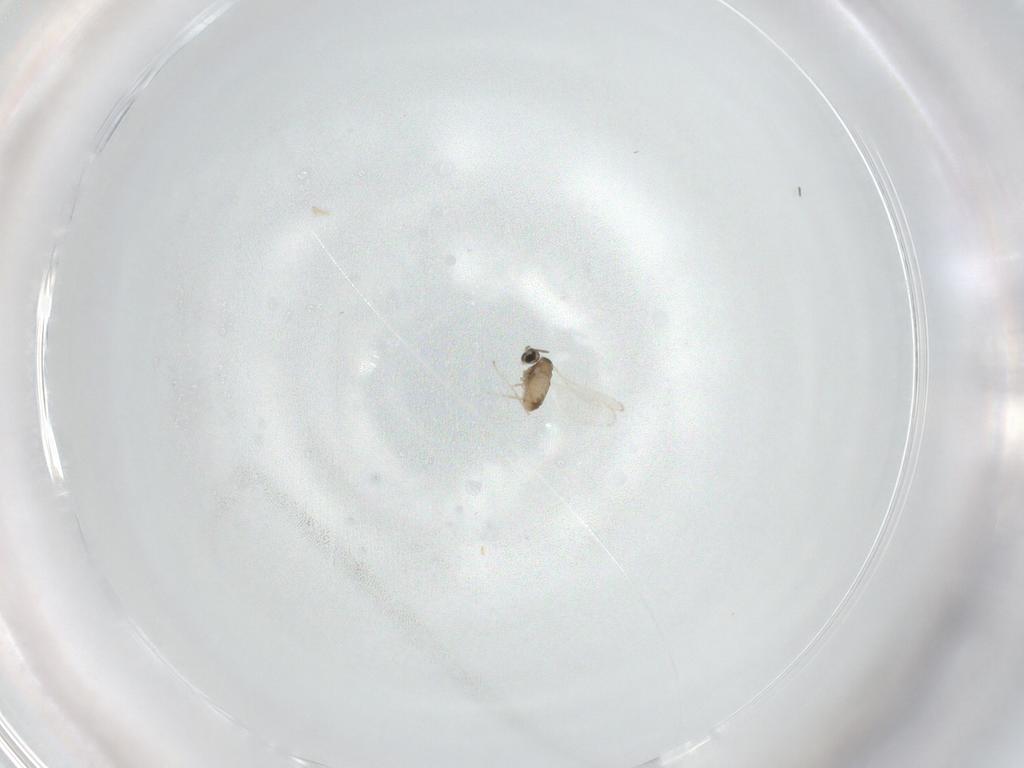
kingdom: Animalia
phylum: Arthropoda
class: Insecta
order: Diptera
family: Cecidomyiidae
